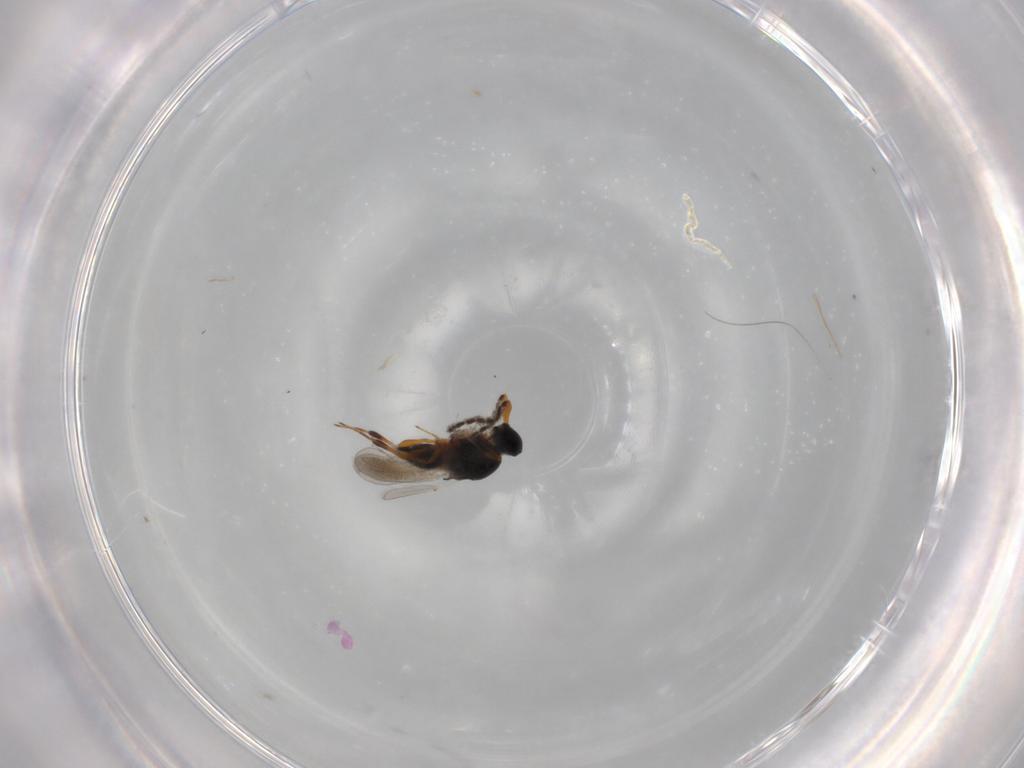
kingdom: Animalia
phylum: Arthropoda
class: Insecta
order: Hymenoptera
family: Platygastridae
